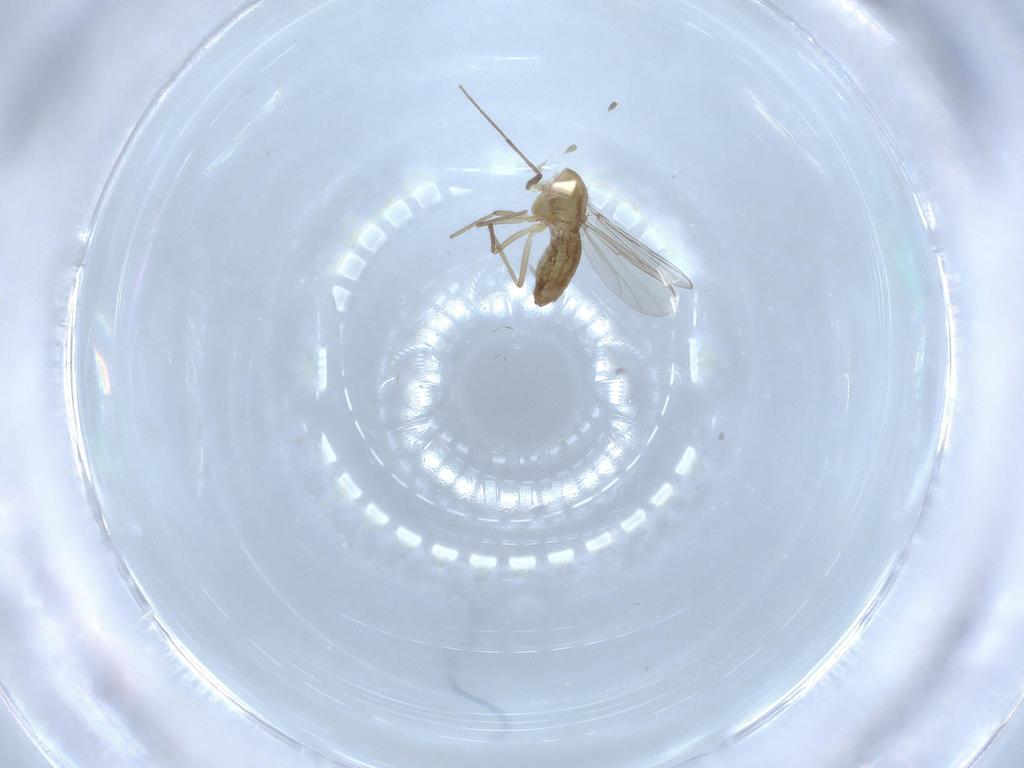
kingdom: Animalia
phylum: Arthropoda
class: Insecta
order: Diptera
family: Chironomidae
